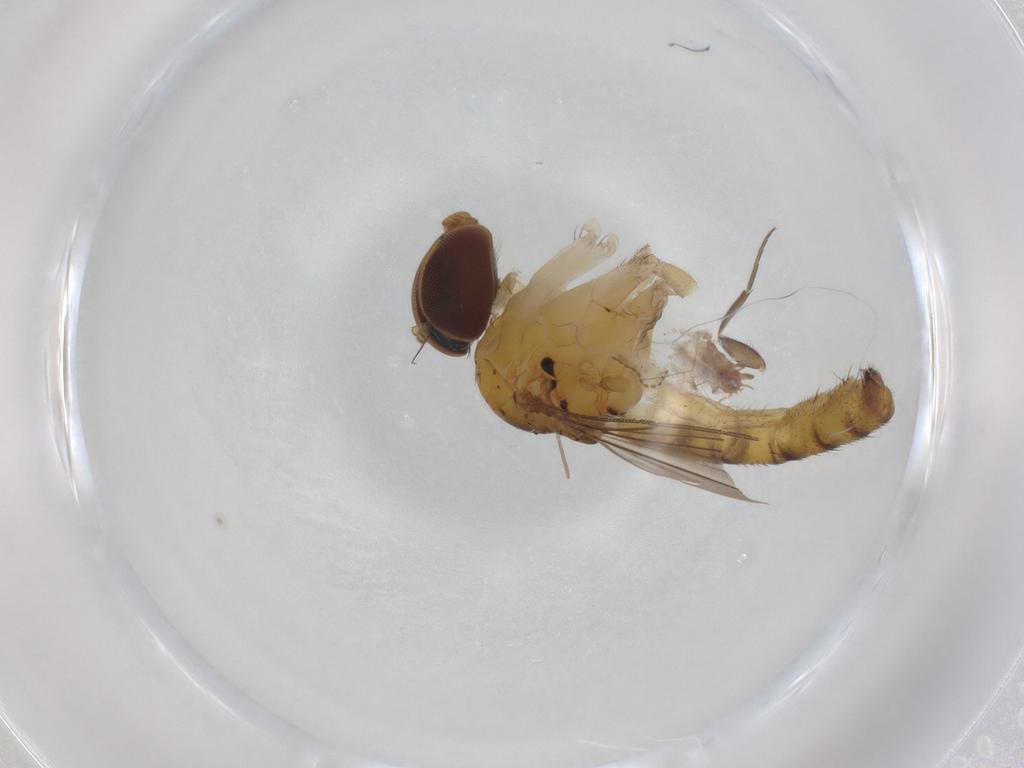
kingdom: Animalia
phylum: Arthropoda
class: Insecta
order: Diptera
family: Dolichopodidae
